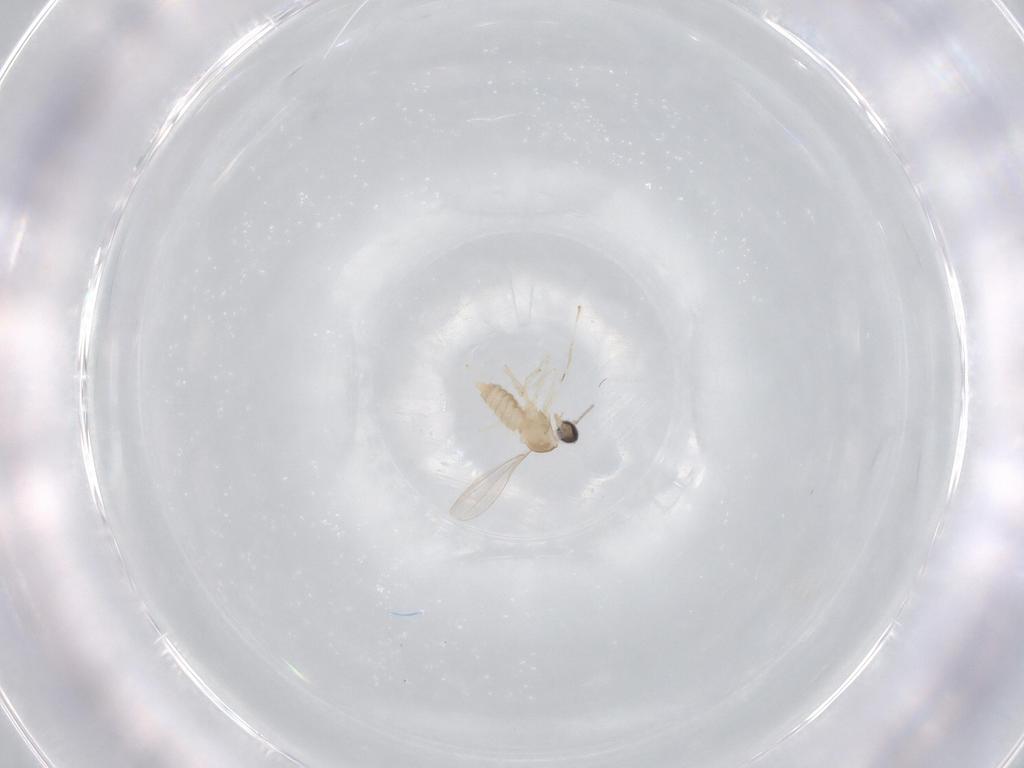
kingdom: Animalia
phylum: Arthropoda
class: Insecta
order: Diptera
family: Cecidomyiidae
